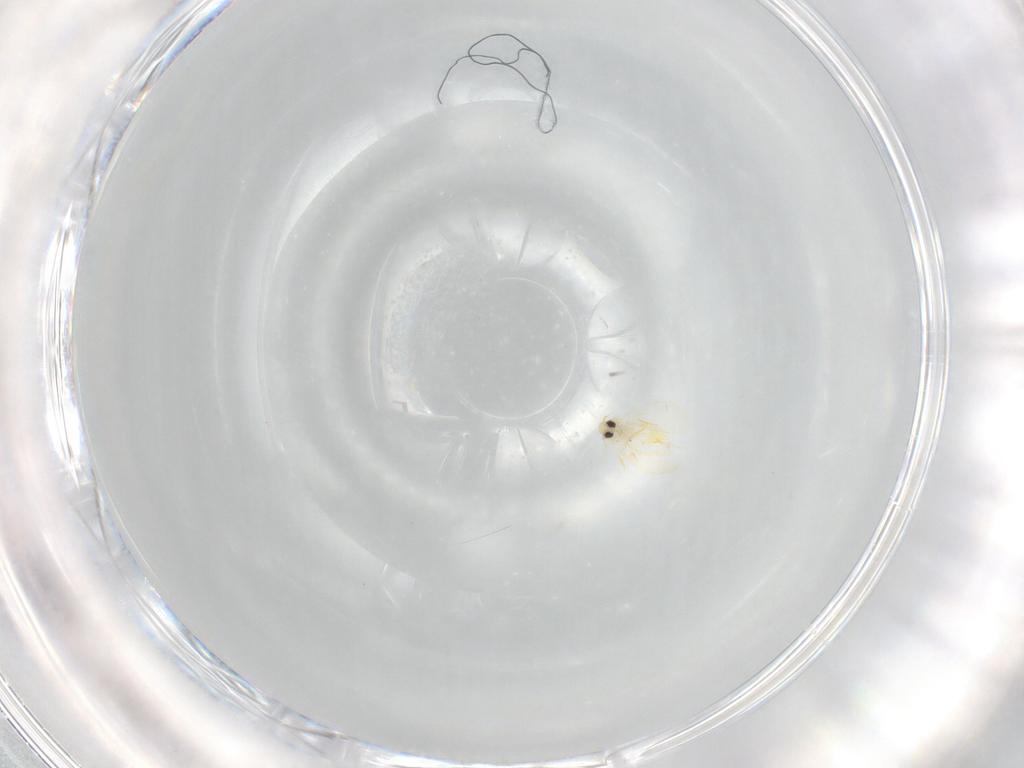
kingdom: Animalia
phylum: Arthropoda
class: Insecta
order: Hemiptera
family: Aleyrodidae
